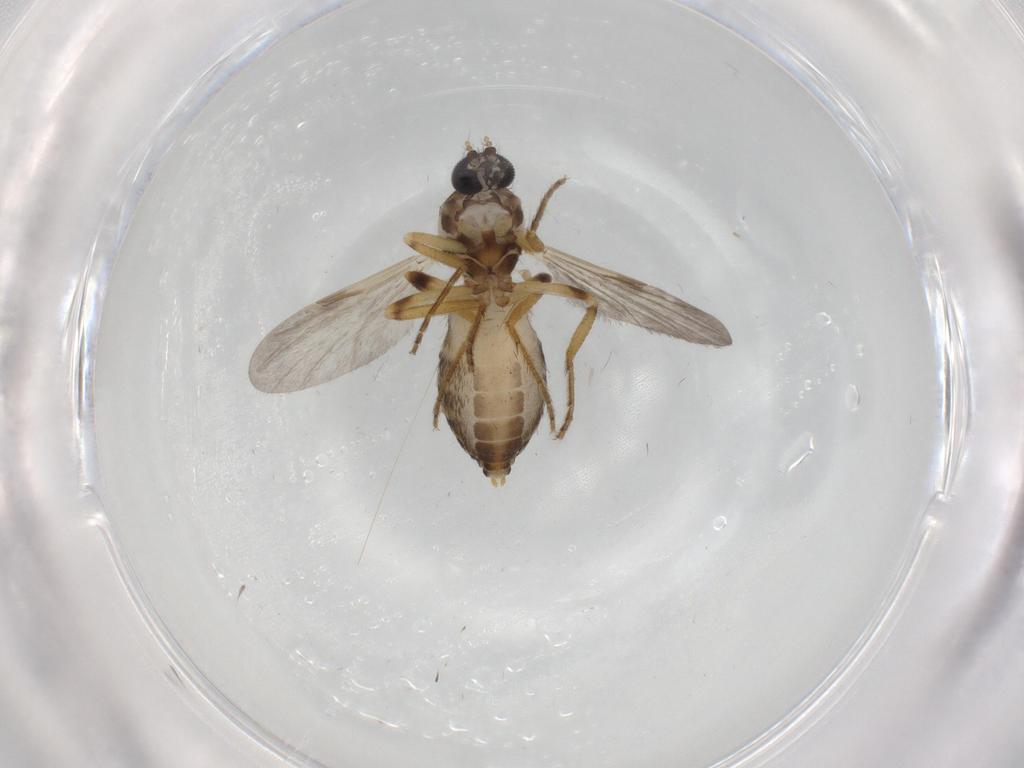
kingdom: Animalia
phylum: Arthropoda
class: Insecta
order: Diptera
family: Ceratopogonidae
